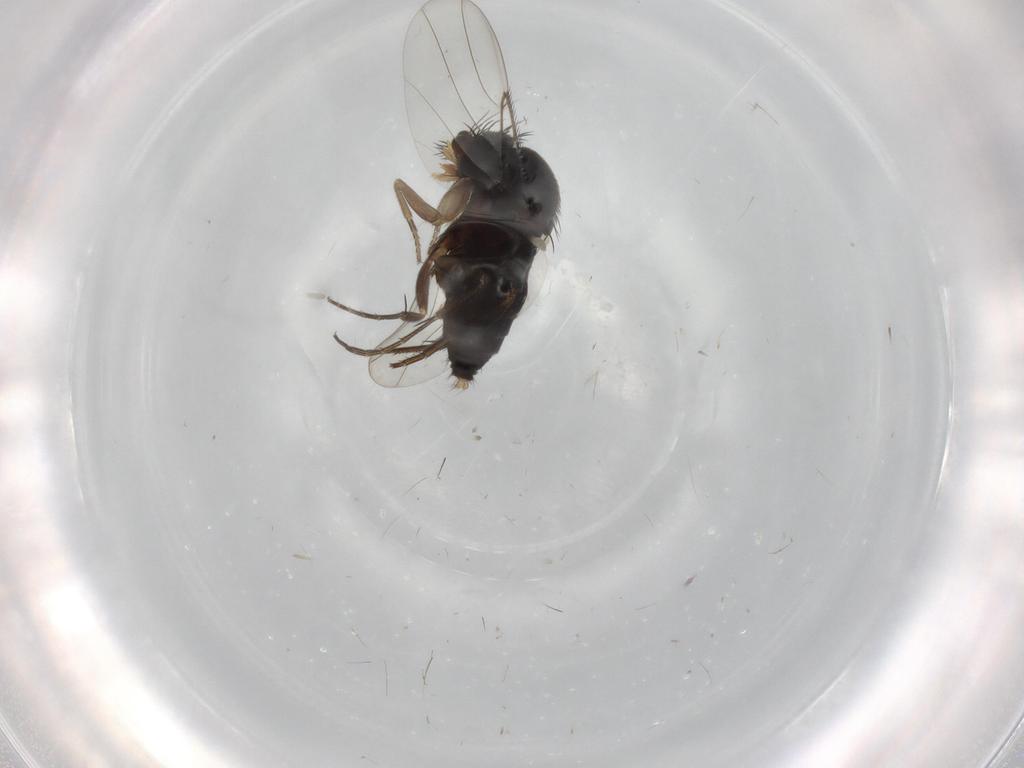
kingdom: Animalia
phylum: Arthropoda
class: Insecta
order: Diptera
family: Phoridae
